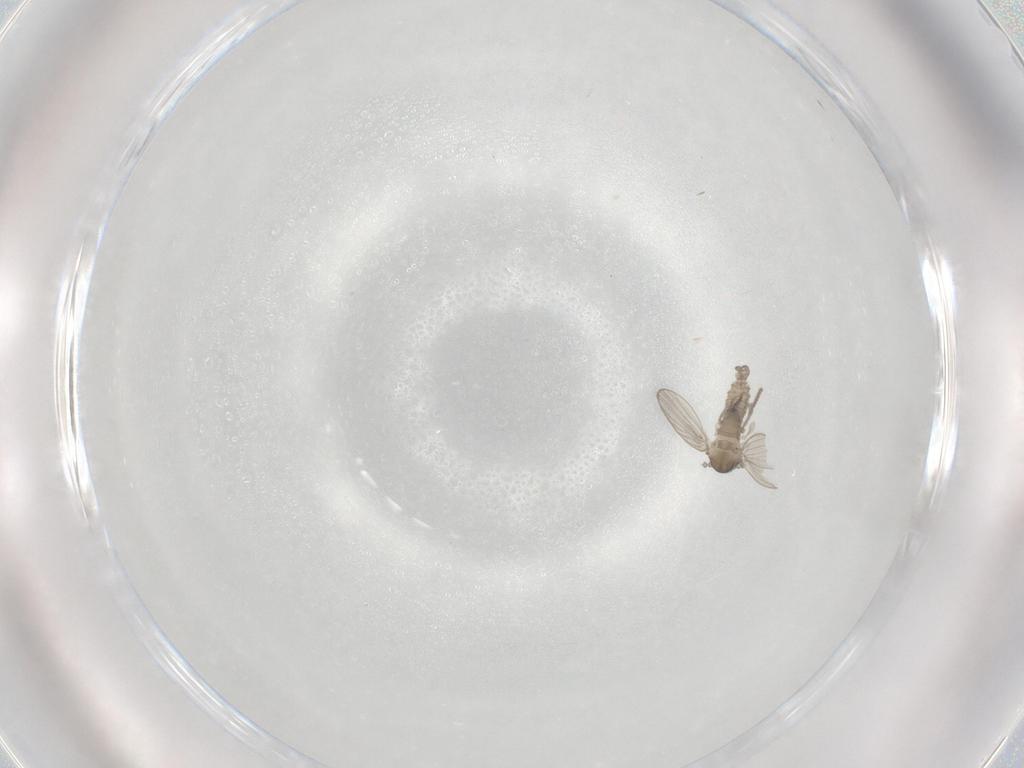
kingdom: Animalia
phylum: Arthropoda
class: Insecta
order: Diptera
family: Psychodidae
